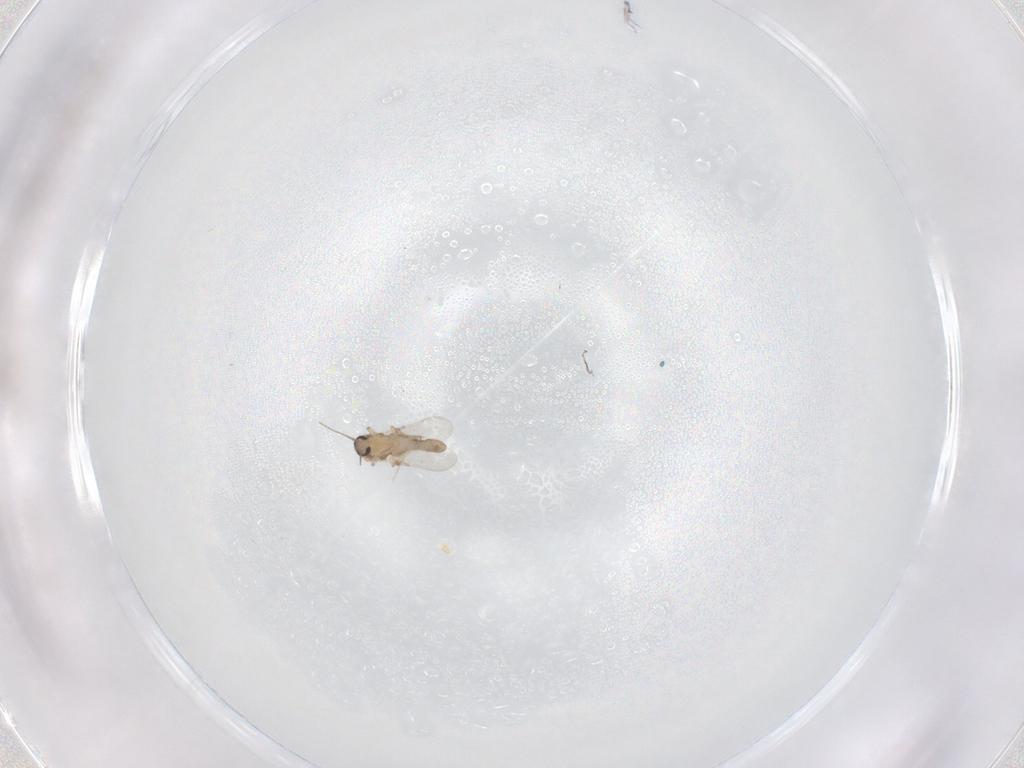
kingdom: Animalia
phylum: Arthropoda
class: Insecta
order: Diptera
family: Ceratopogonidae
